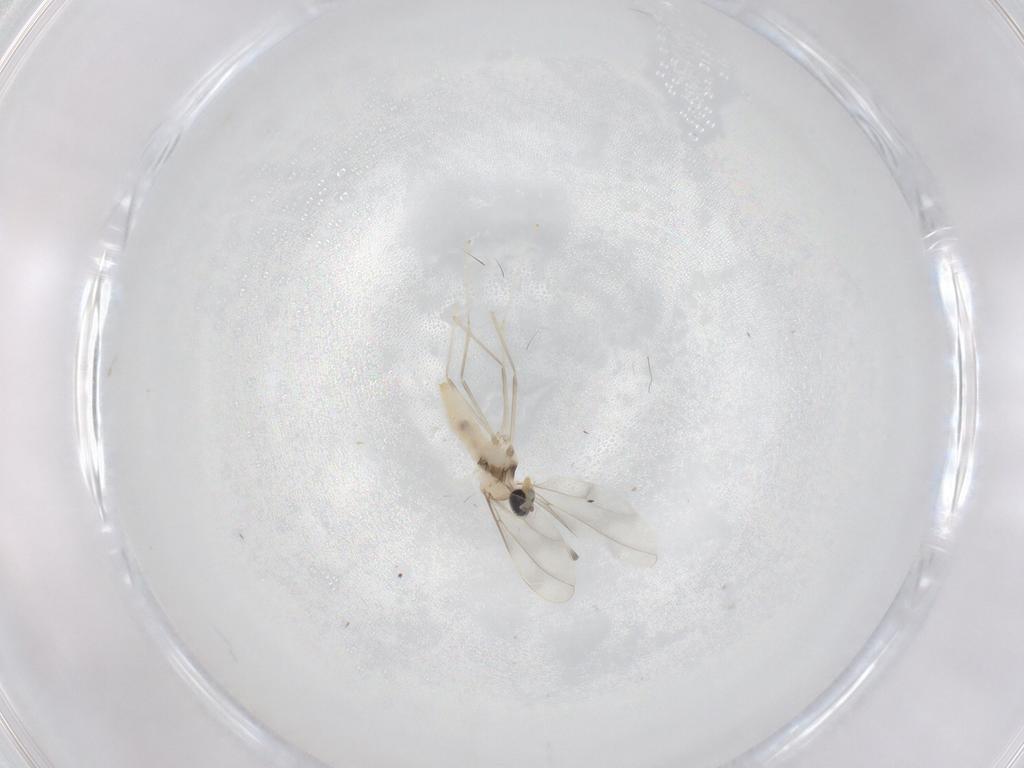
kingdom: Animalia
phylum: Arthropoda
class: Insecta
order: Diptera
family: Cecidomyiidae
